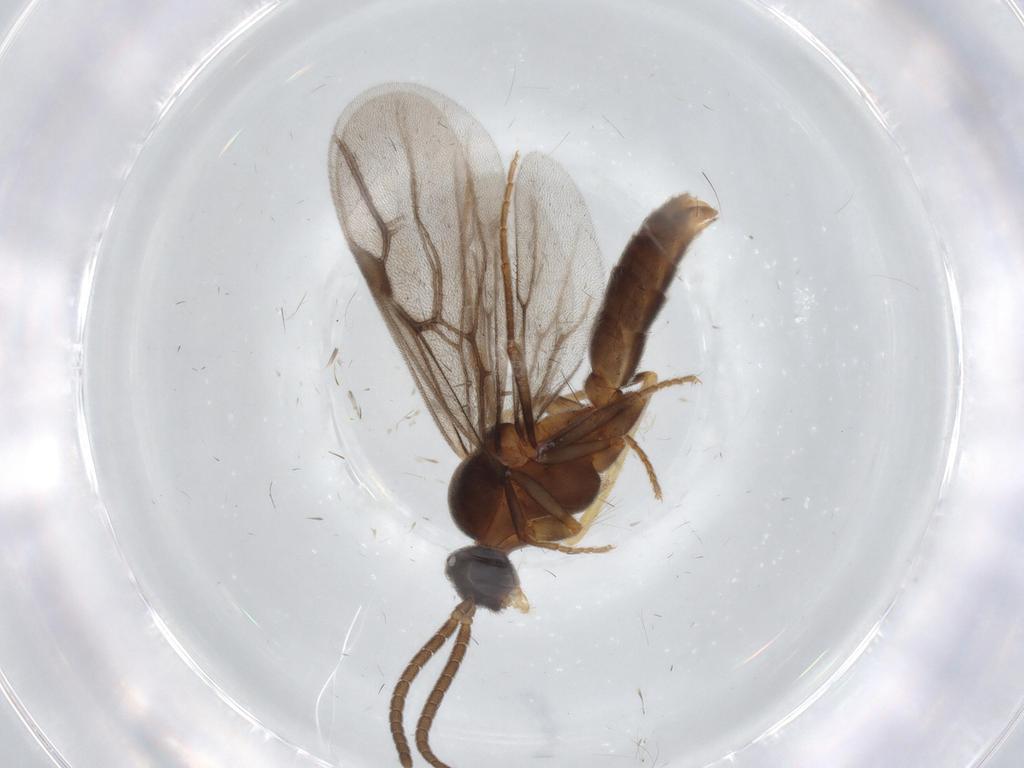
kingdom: Animalia
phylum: Arthropoda
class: Insecta
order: Hymenoptera
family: Formicidae
